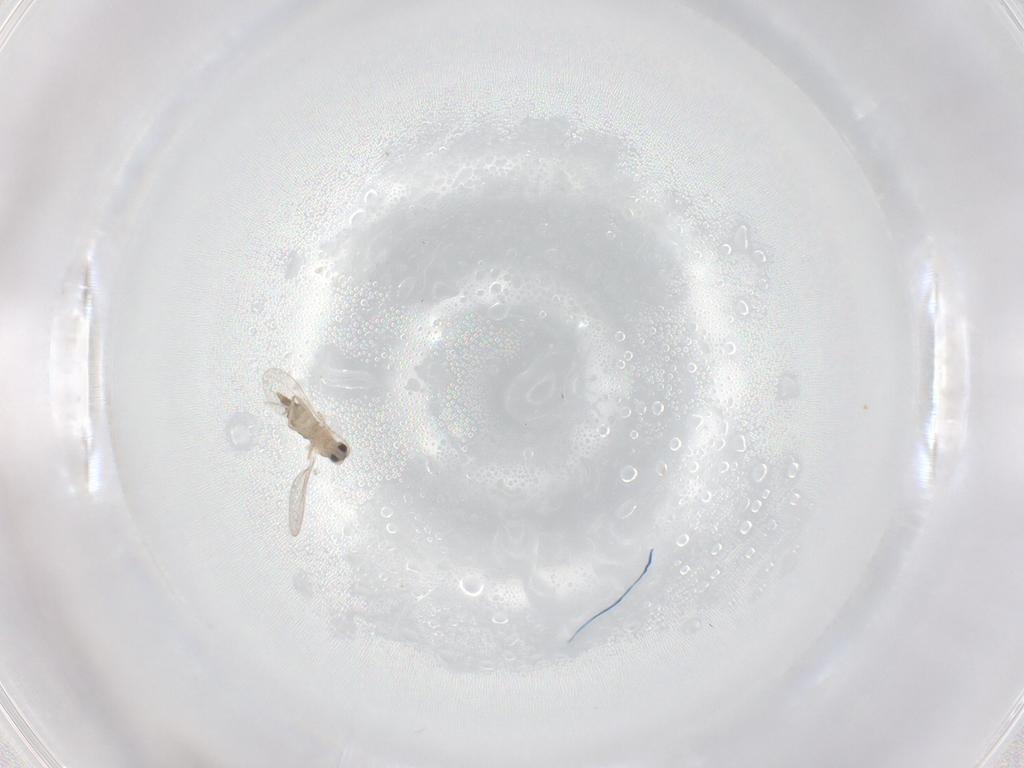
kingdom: Animalia
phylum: Arthropoda
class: Insecta
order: Diptera
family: Cecidomyiidae
